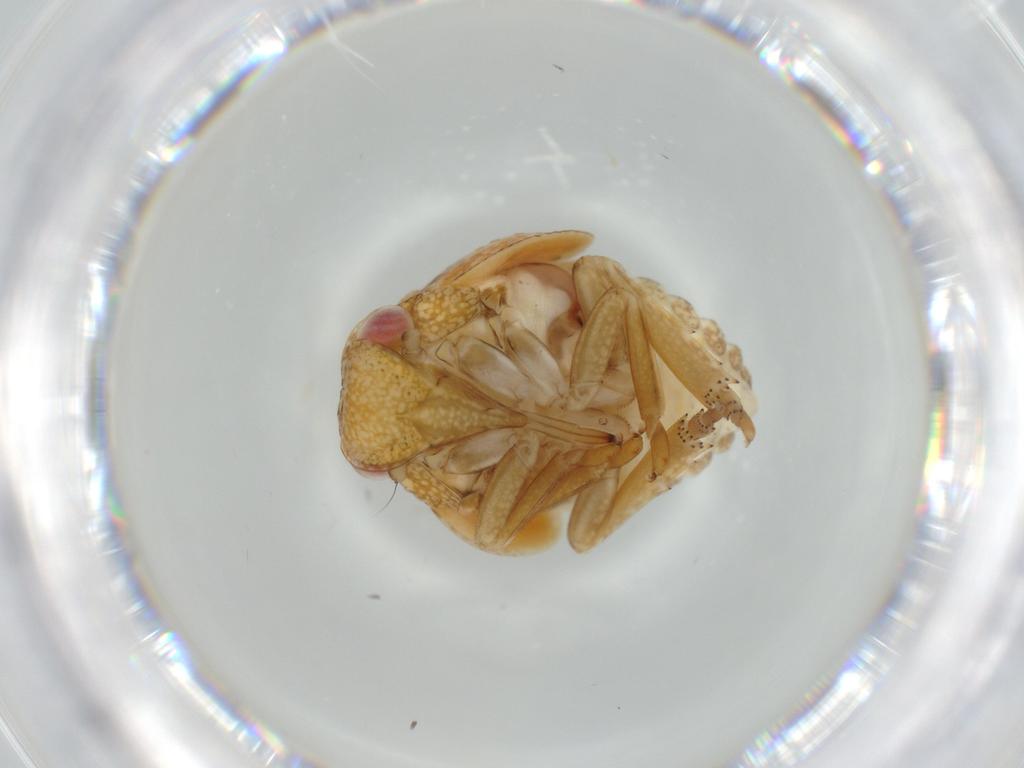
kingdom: Animalia
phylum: Arthropoda
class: Insecta
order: Hemiptera
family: Acanaloniidae
